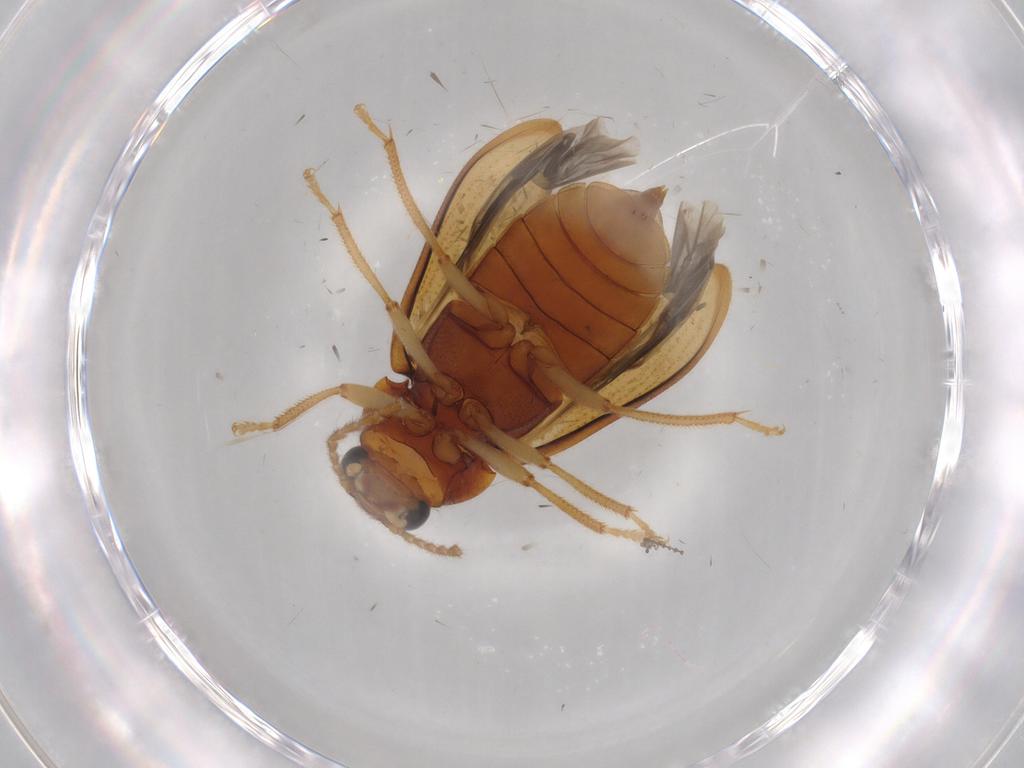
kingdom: Animalia
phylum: Arthropoda
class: Insecta
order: Coleoptera
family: Ptilodactylidae
